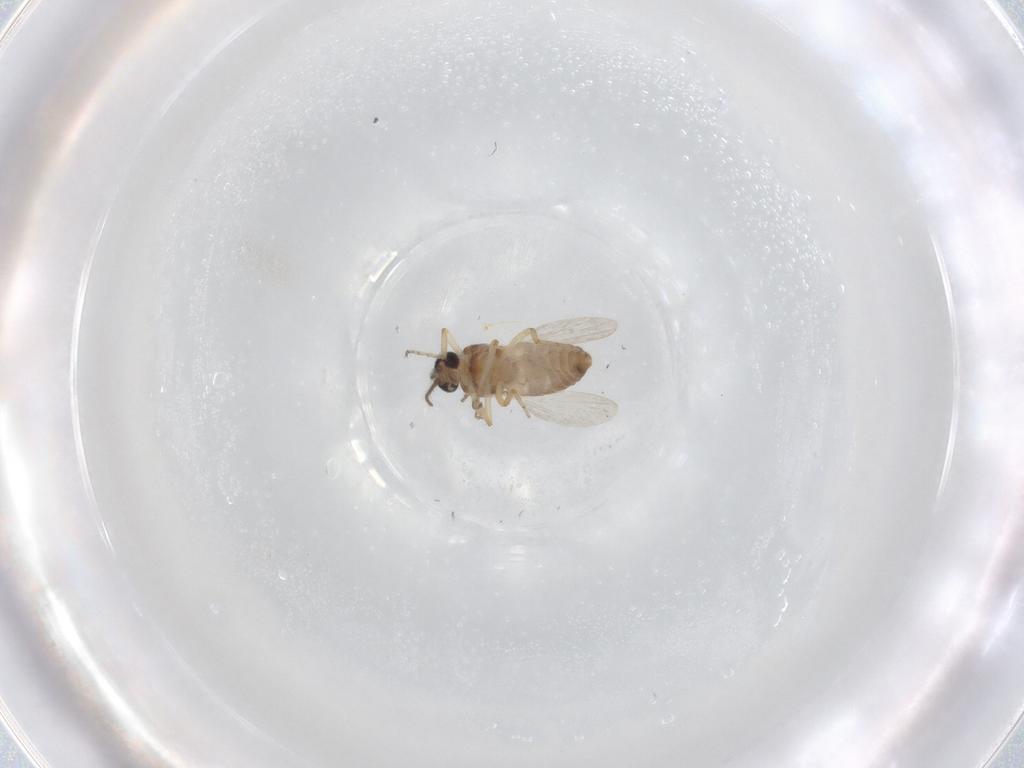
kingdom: Animalia
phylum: Arthropoda
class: Insecta
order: Diptera
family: Ceratopogonidae
